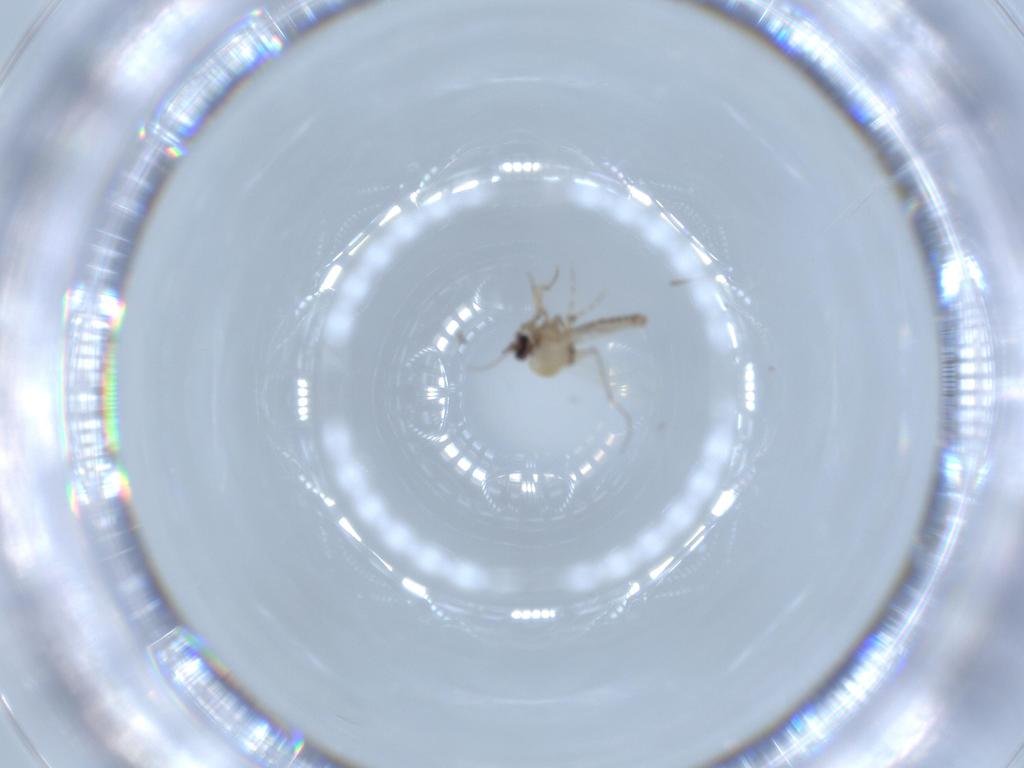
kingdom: Animalia
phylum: Arthropoda
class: Insecta
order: Diptera
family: Chironomidae
